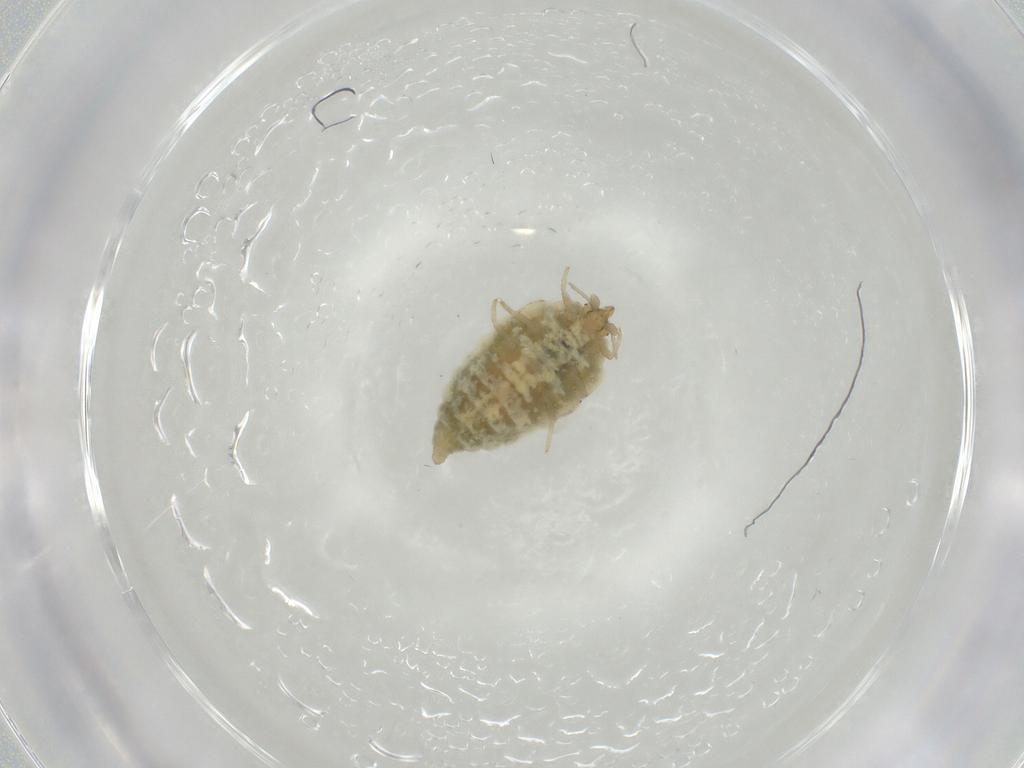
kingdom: Animalia
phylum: Arthropoda
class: Insecta
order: Neuroptera
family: Coniopterygidae
